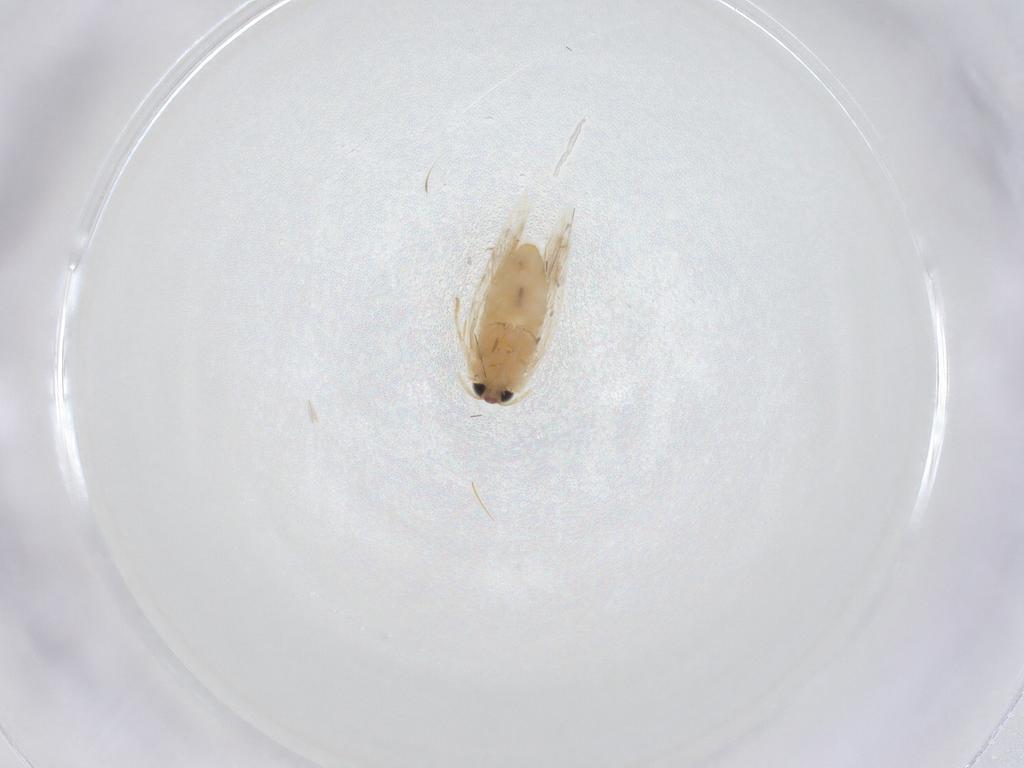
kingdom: Animalia
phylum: Arthropoda
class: Insecta
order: Lepidoptera
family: Nepticulidae
